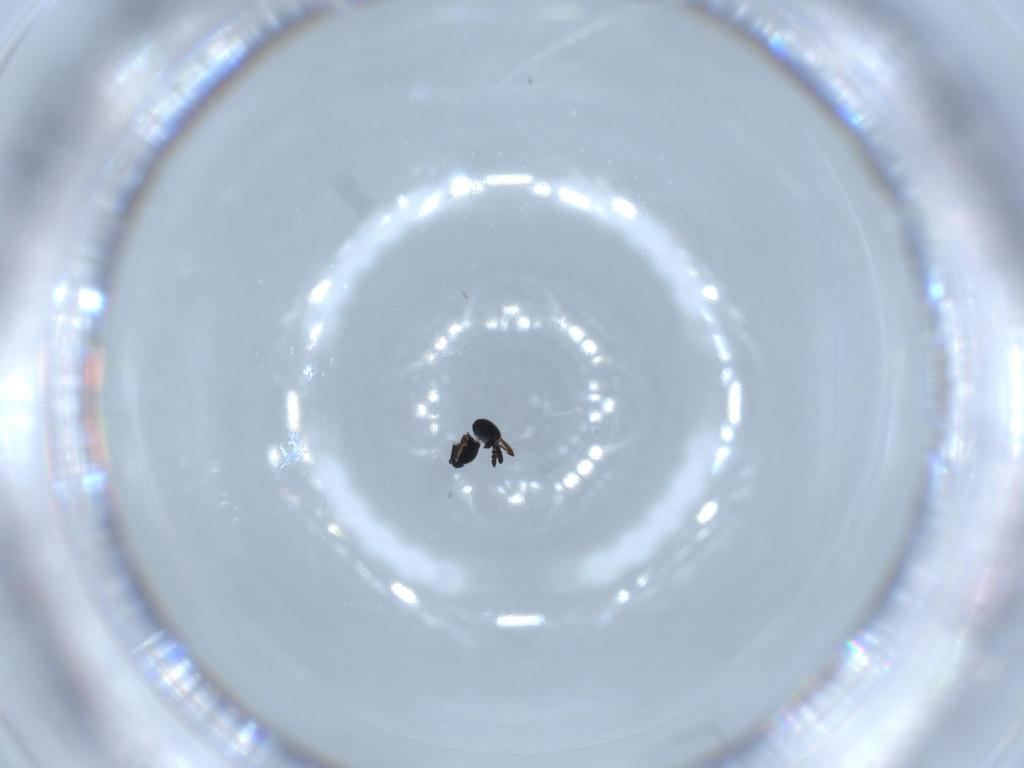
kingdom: Animalia
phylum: Arthropoda
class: Insecta
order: Hymenoptera
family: Platygastridae
